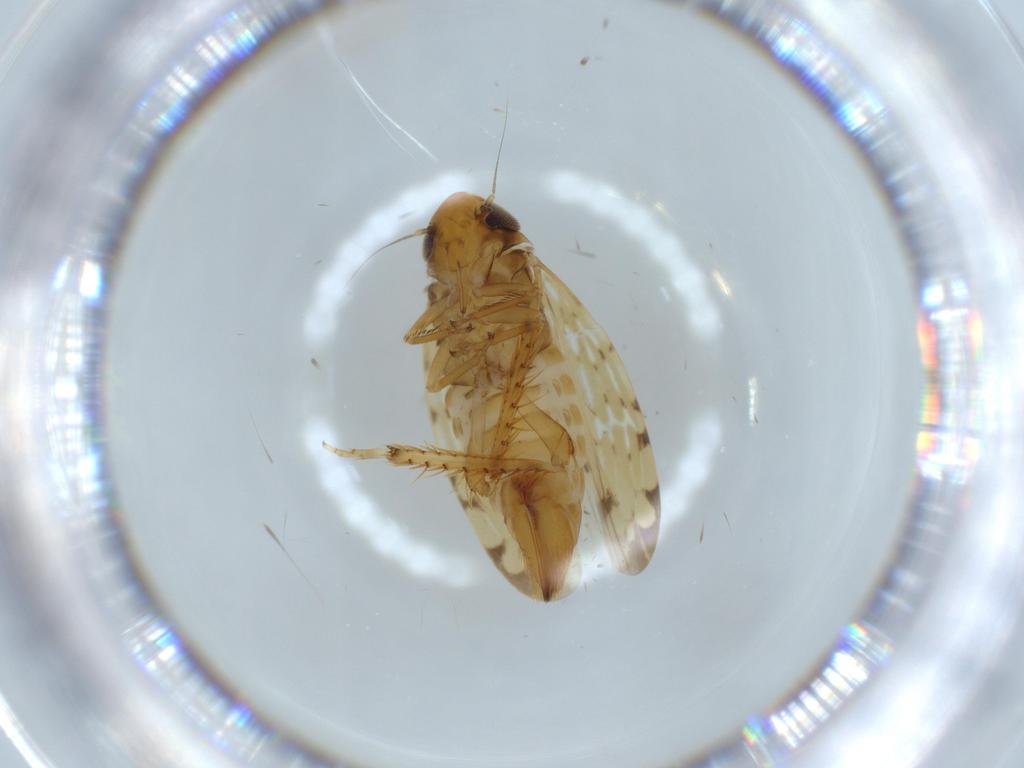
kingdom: Animalia
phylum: Arthropoda
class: Insecta
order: Hemiptera
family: Cicadellidae
